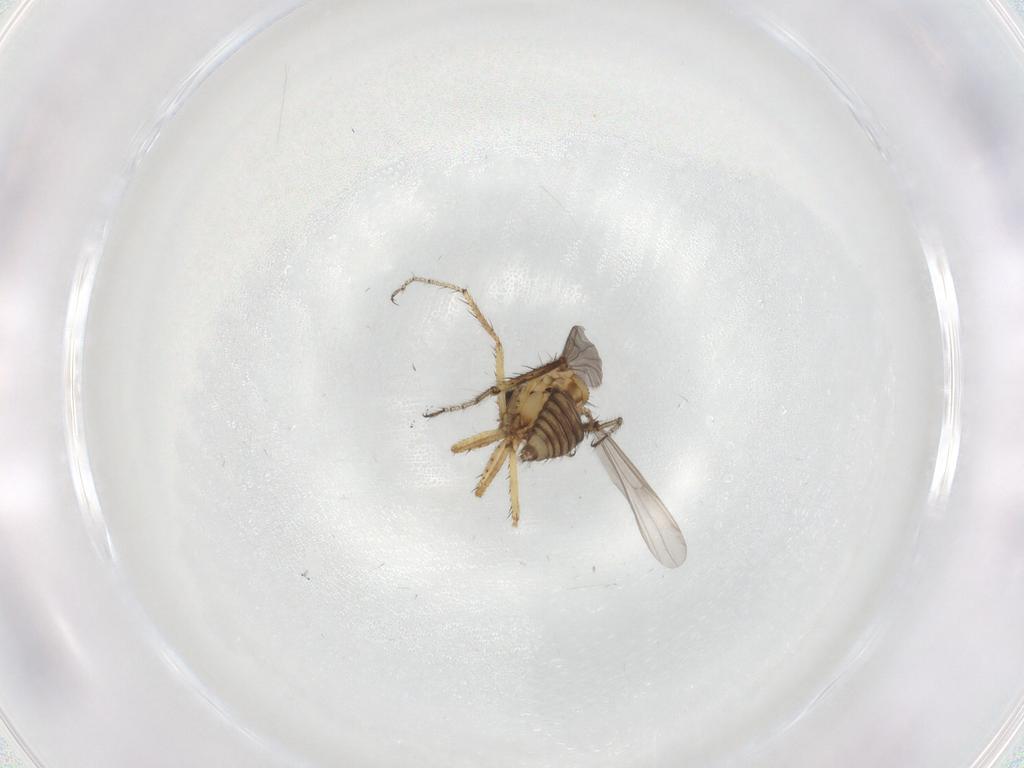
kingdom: Animalia
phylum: Arthropoda
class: Insecta
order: Diptera
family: Ceratopogonidae
